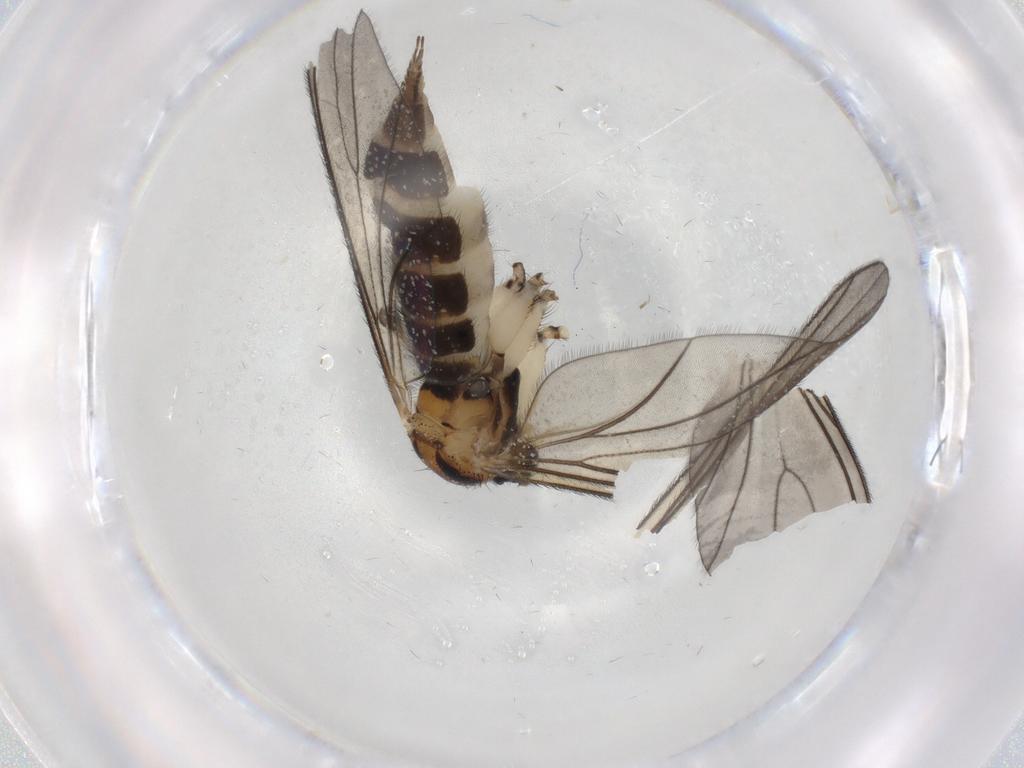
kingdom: Animalia
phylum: Arthropoda
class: Insecta
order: Diptera
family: Sciaridae
